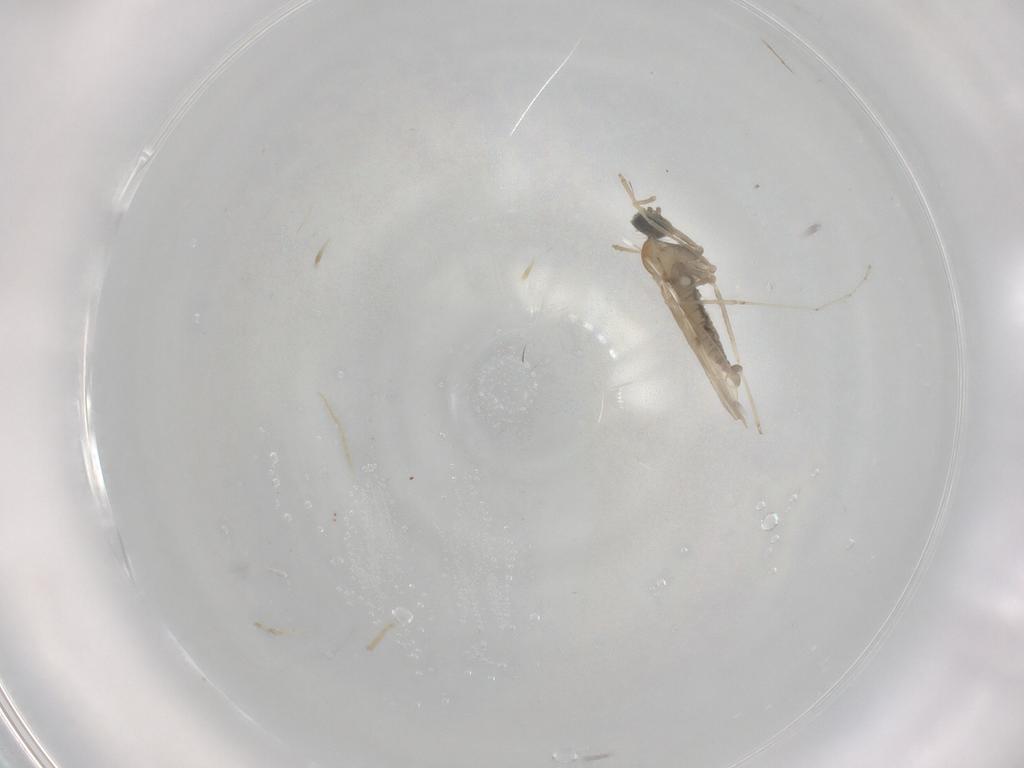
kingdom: Animalia
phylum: Arthropoda
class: Insecta
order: Diptera
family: Cecidomyiidae
